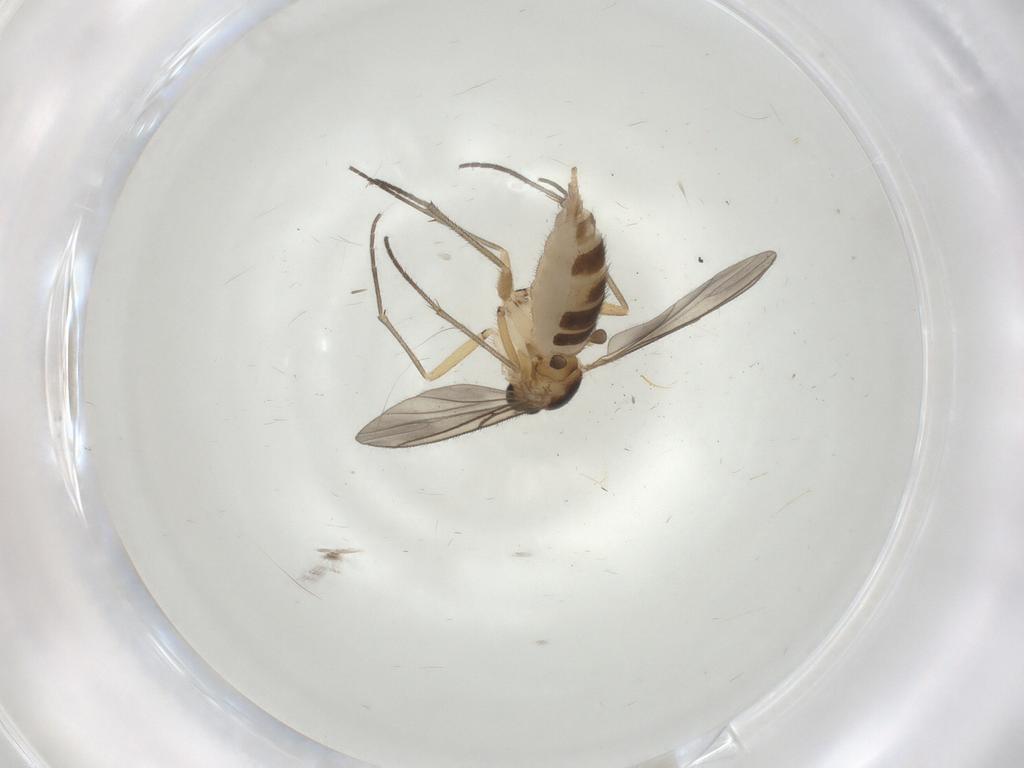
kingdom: Animalia
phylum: Arthropoda
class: Insecta
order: Diptera
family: Sciaridae
